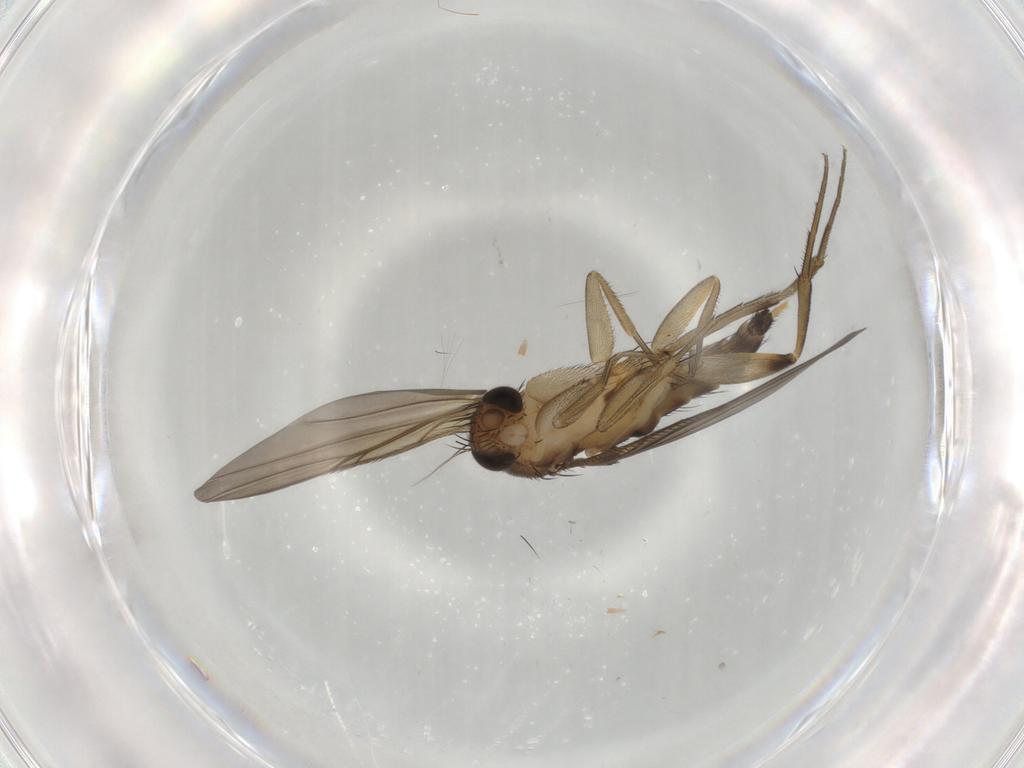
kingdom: Animalia
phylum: Arthropoda
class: Insecta
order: Diptera
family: Phoridae
